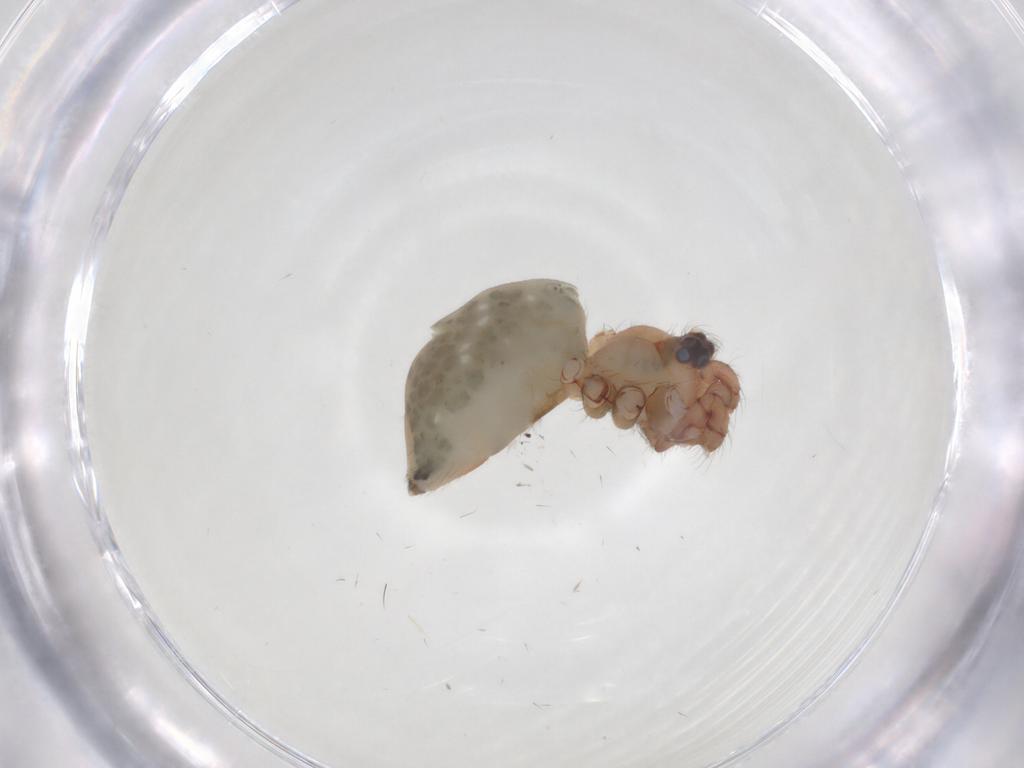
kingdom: Animalia
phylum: Arthropoda
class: Arachnida
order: Araneae
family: Pholcidae
